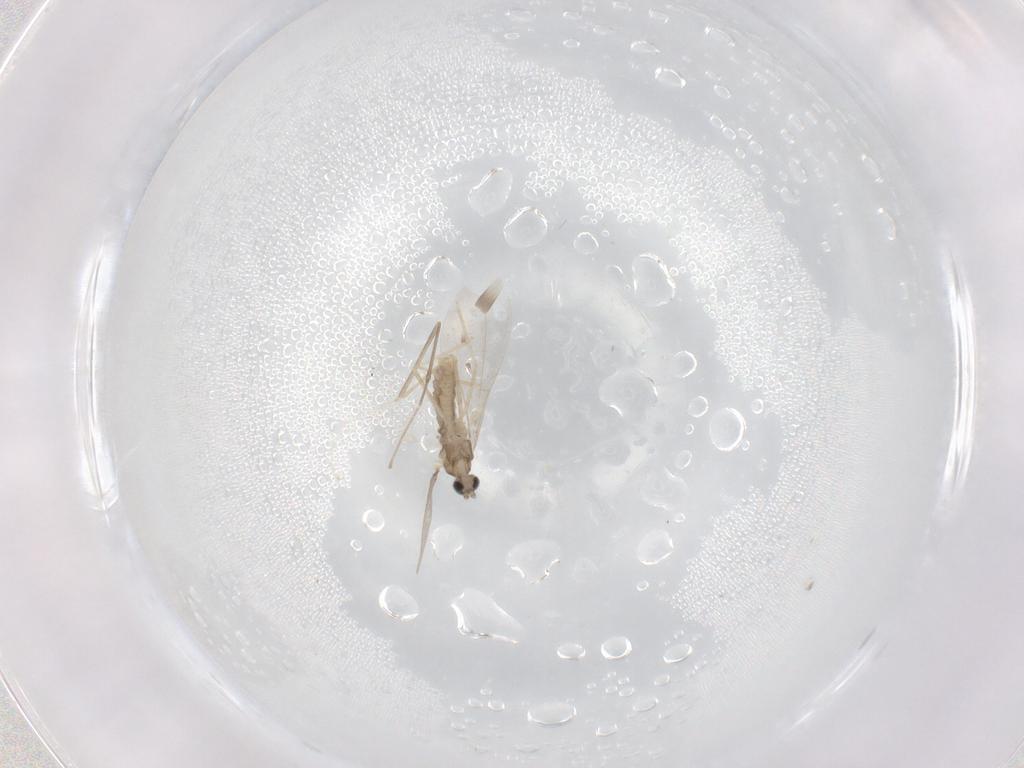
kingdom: Animalia
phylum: Arthropoda
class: Insecta
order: Diptera
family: Cecidomyiidae
